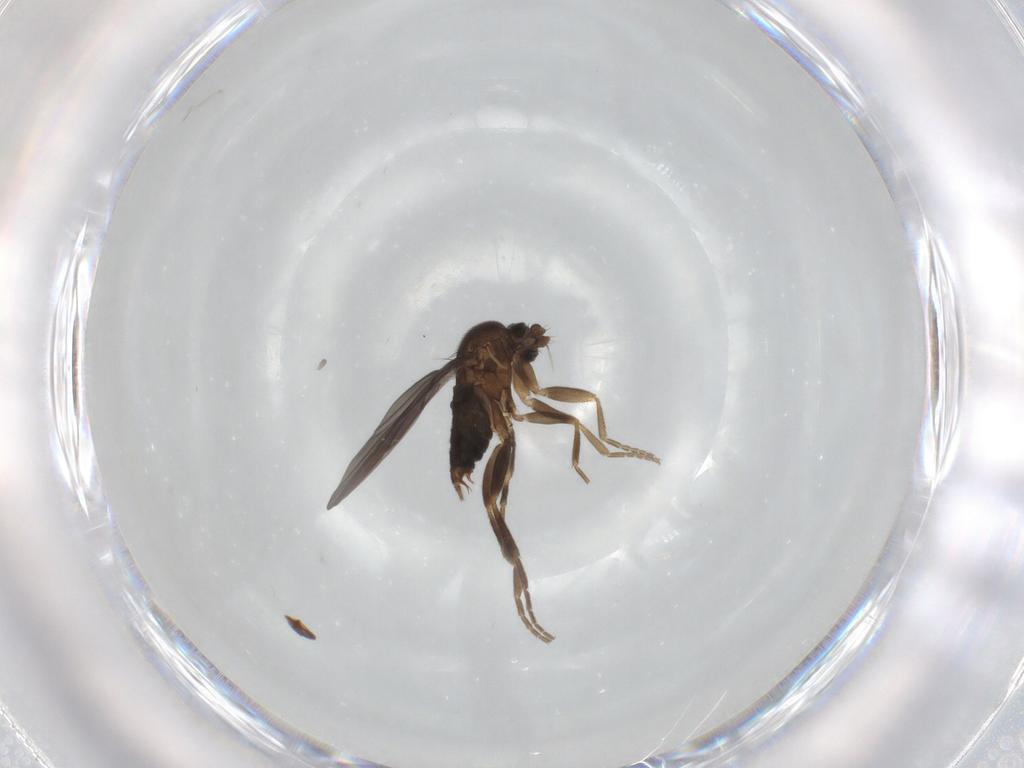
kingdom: Animalia
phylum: Arthropoda
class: Insecta
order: Diptera
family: Phoridae
